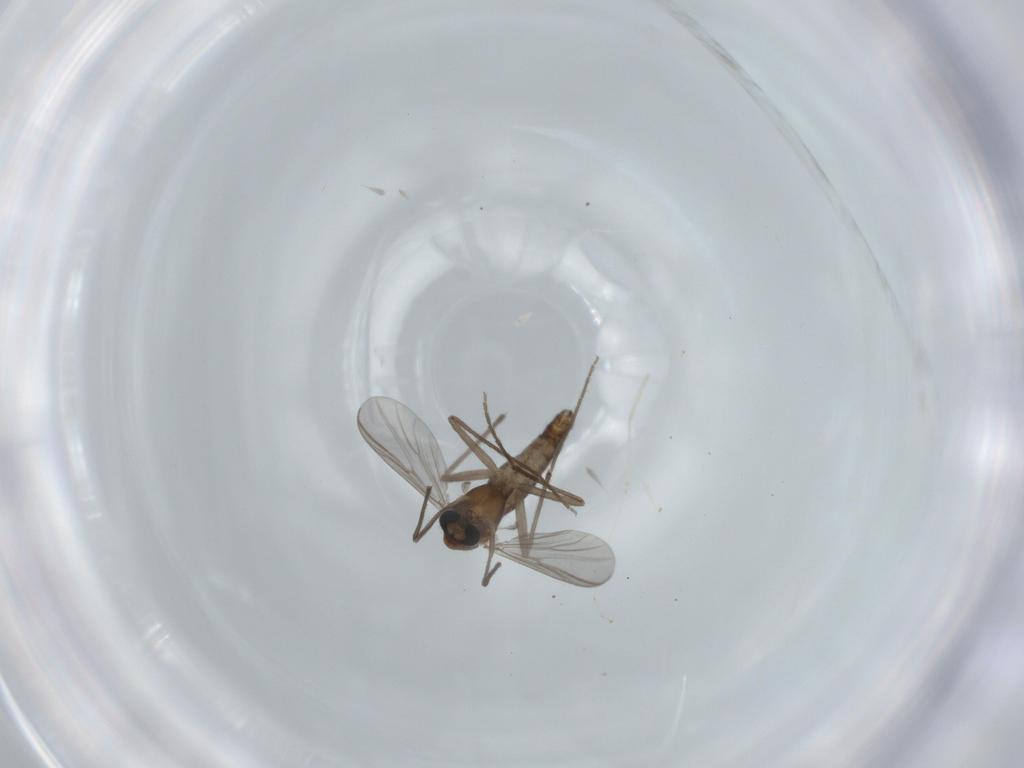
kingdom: Animalia
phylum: Arthropoda
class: Insecta
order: Diptera
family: Chironomidae
